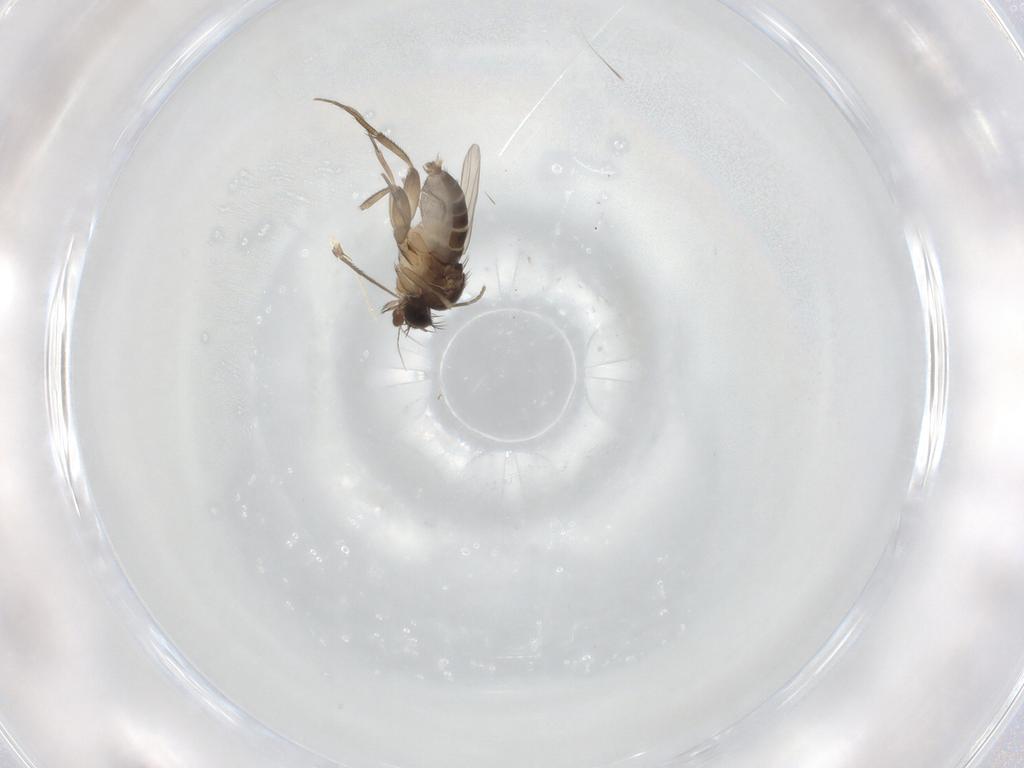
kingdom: Animalia
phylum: Arthropoda
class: Insecta
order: Diptera
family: Phoridae
